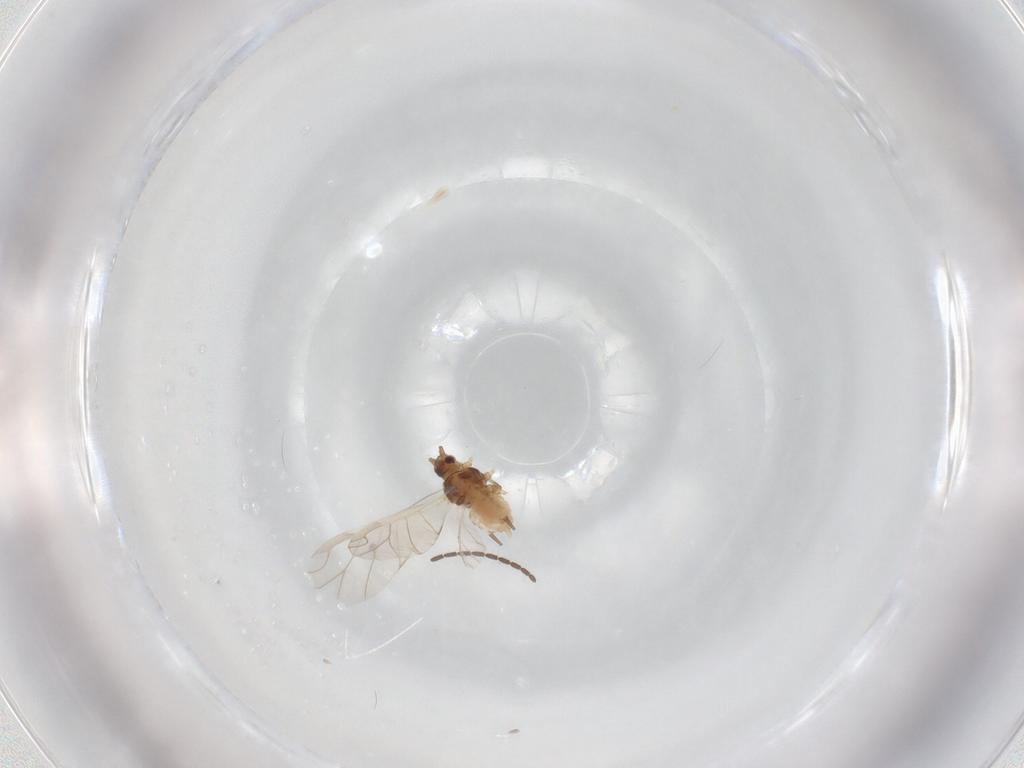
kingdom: Animalia
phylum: Arthropoda
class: Insecta
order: Hemiptera
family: Aphididae
